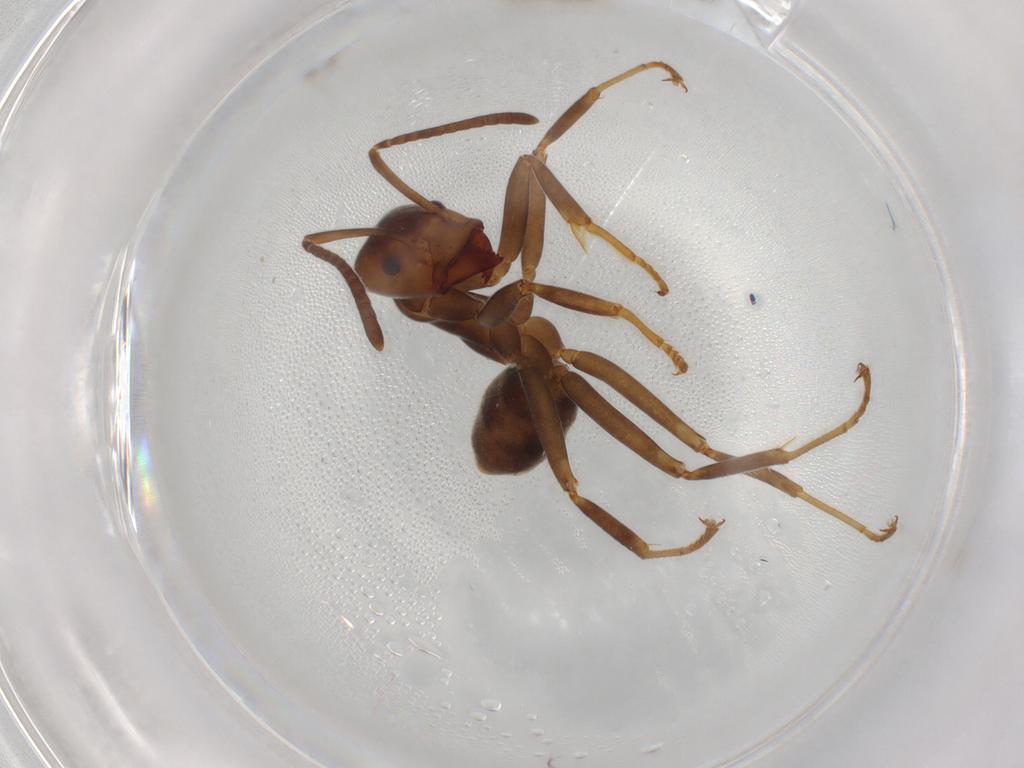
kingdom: Animalia
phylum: Arthropoda
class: Insecta
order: Hymenoptera
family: Formicidae
